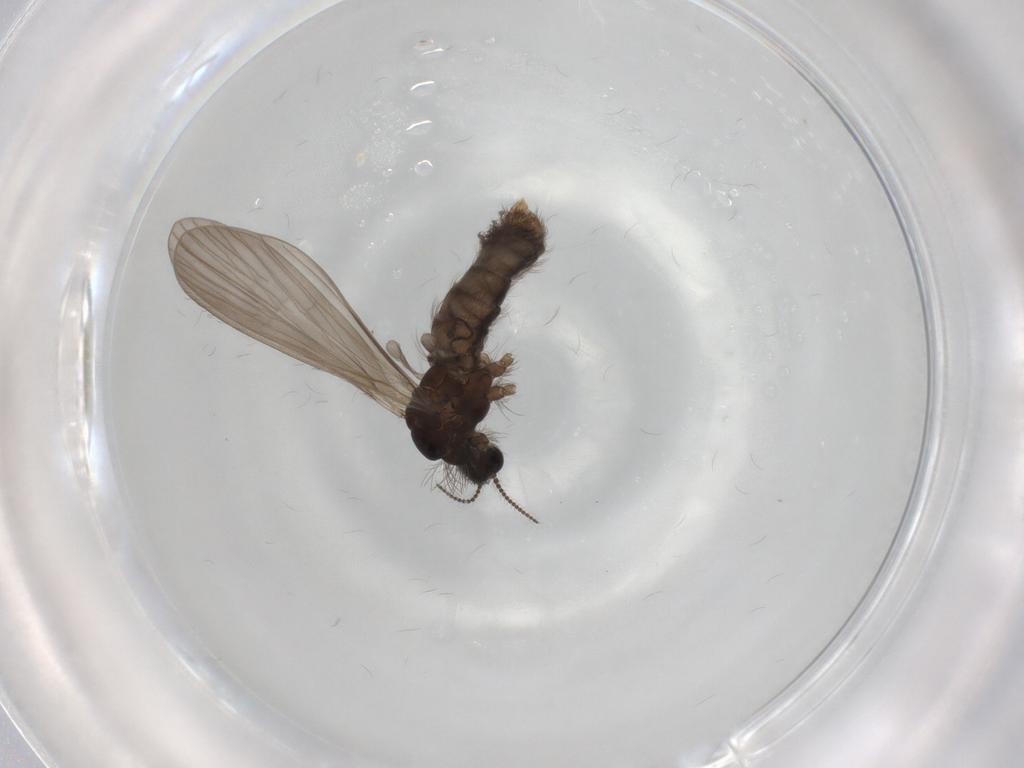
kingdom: Animalia
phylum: Arthropoda
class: Insecta
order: Diptera
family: Limoniidae
